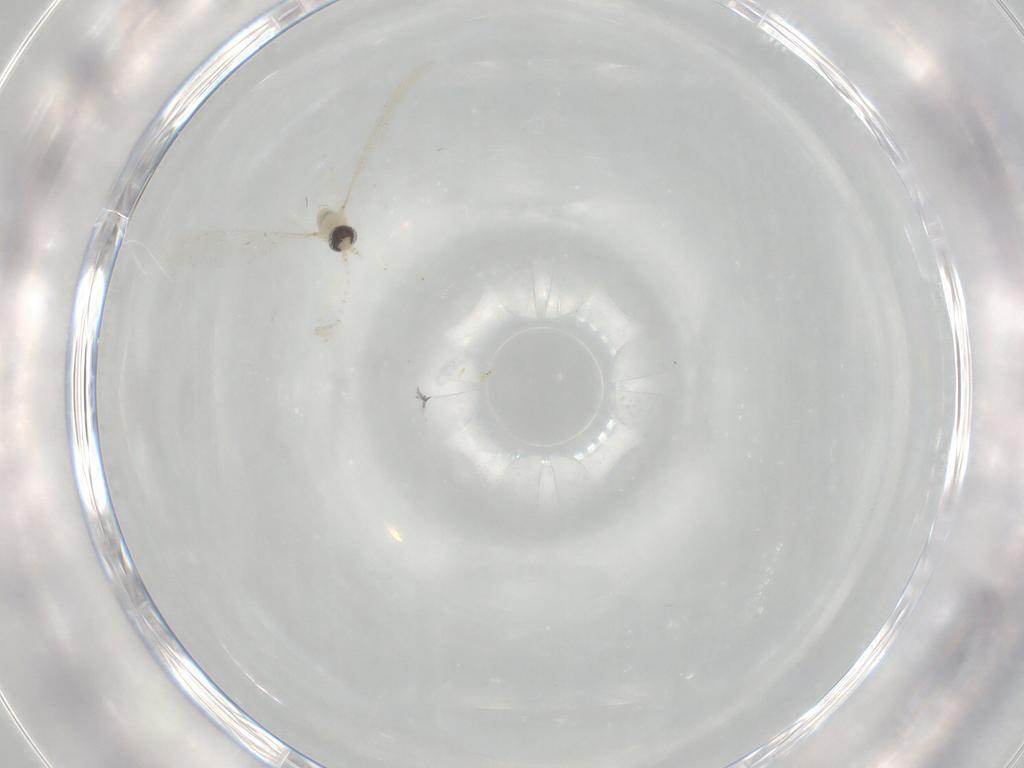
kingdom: Animalia
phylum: Arthropoda
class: Insecta
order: Diptera
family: Cecidomyiidae
